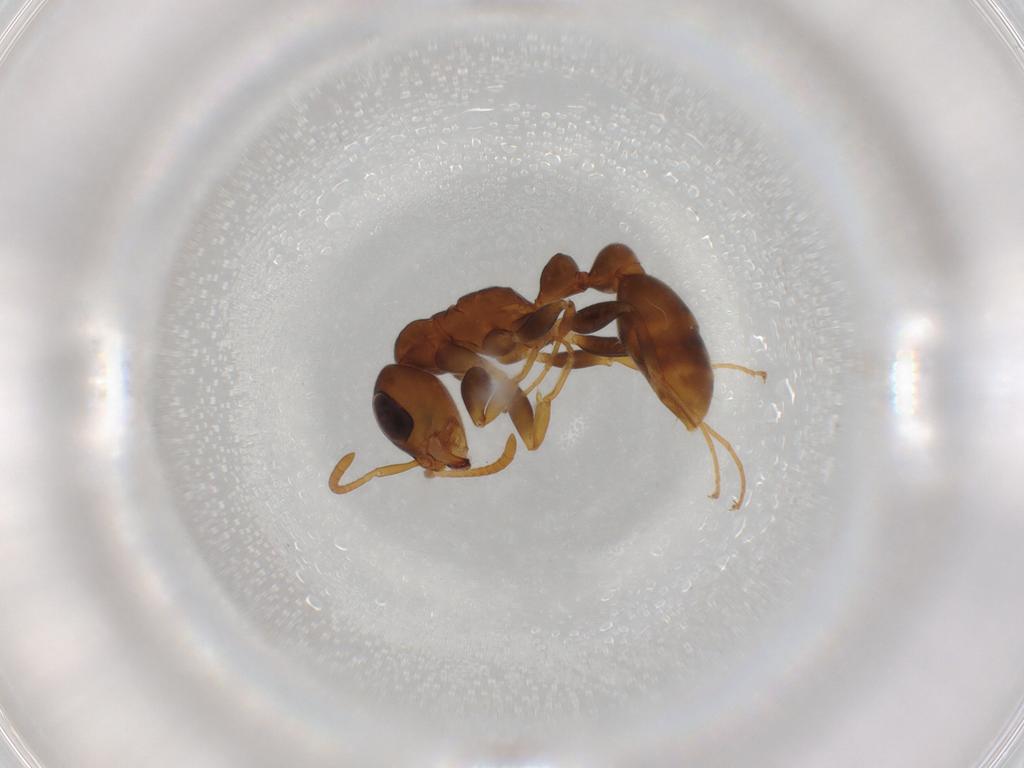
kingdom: Animalia
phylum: Arthropoda
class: Insecta
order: Hymenoptera
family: Formicidae
